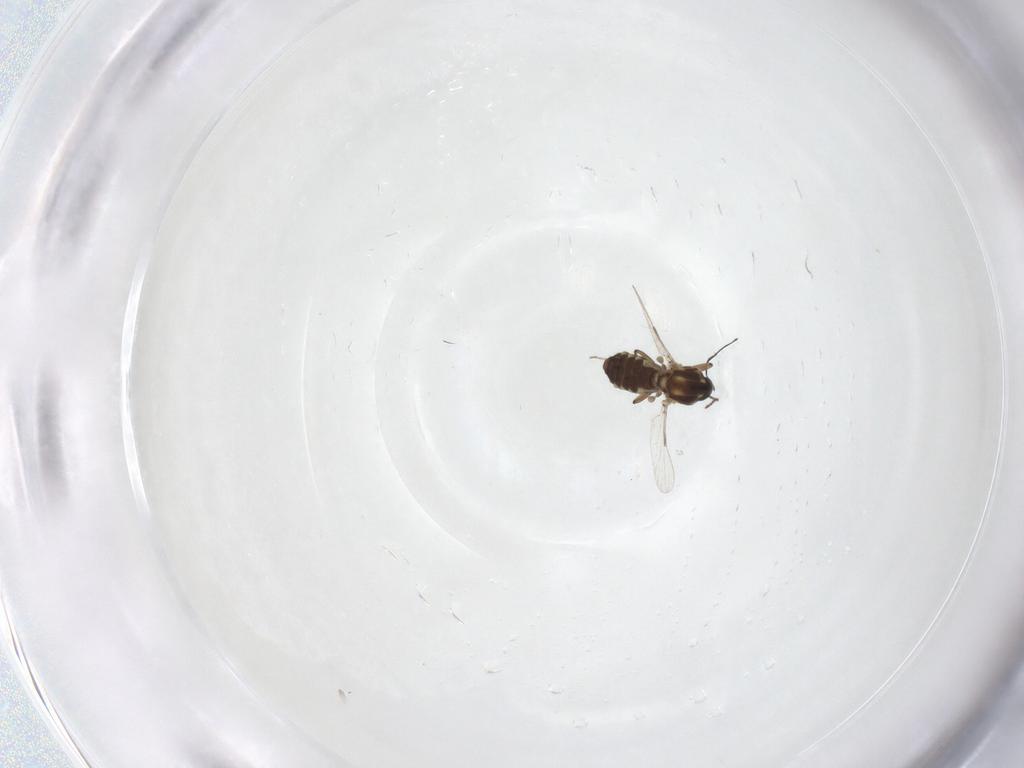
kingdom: Animalia
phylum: Arthropoda
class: Insecta
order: Diptera
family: Ceratopogonidae
